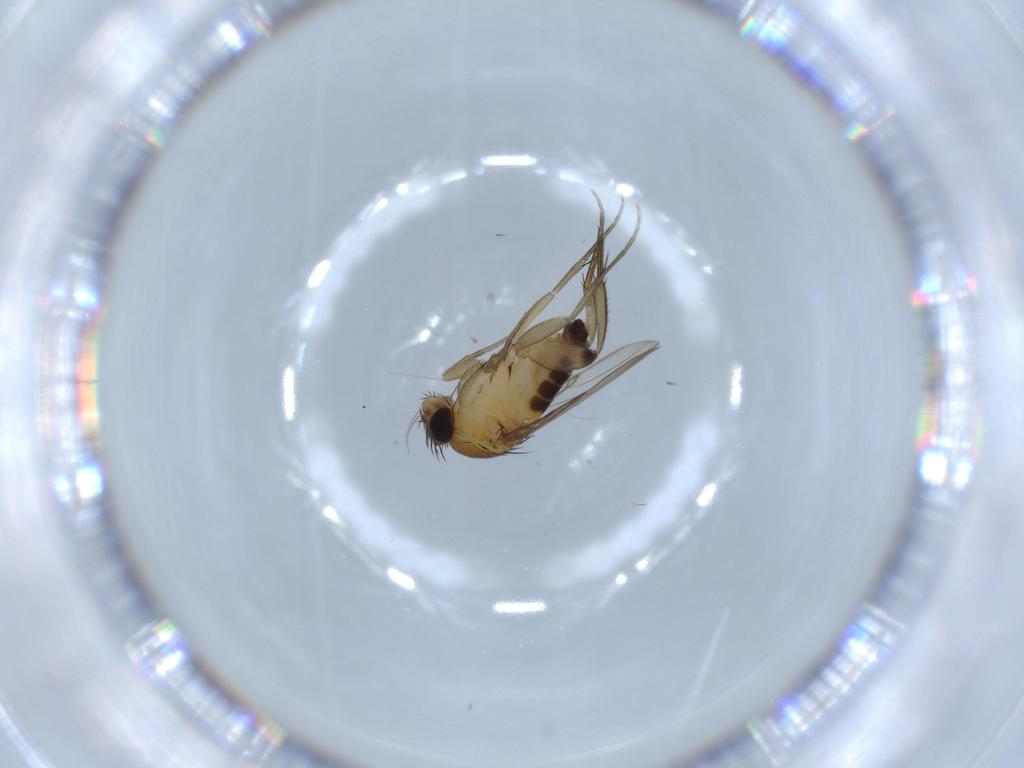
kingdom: Animalia
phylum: Arthropoda
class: Insecta
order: Diptera
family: Phoridae
